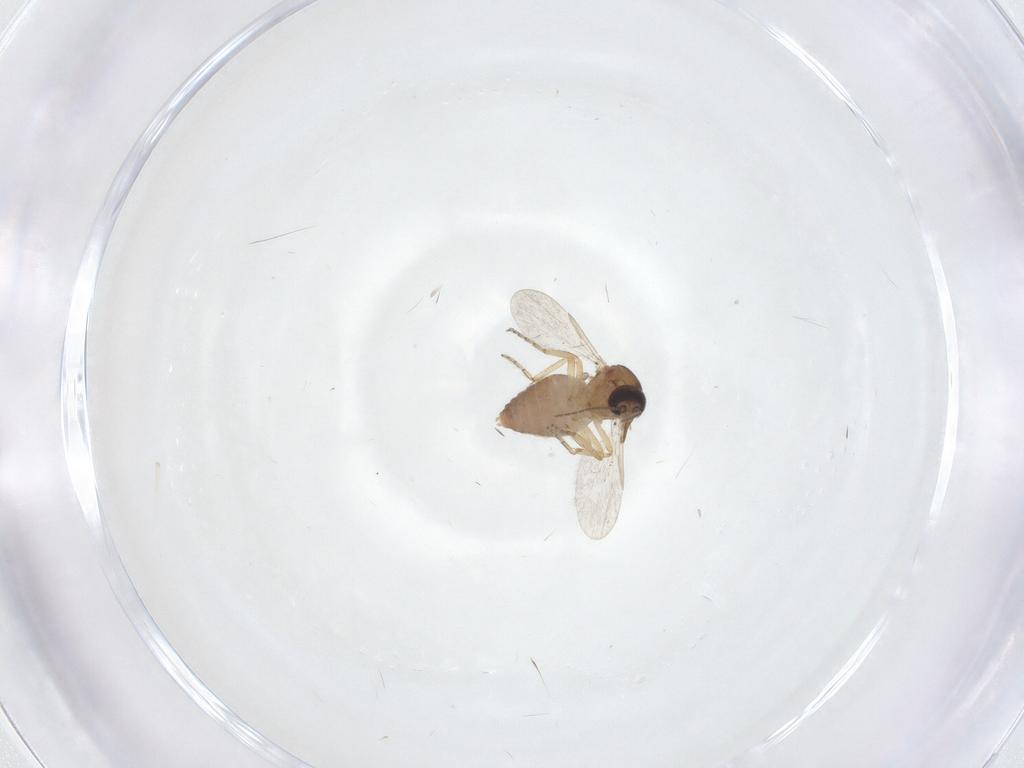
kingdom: Animalia
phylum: Arthropoda
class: Insecta
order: Diptera
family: Ceratopogonidae
